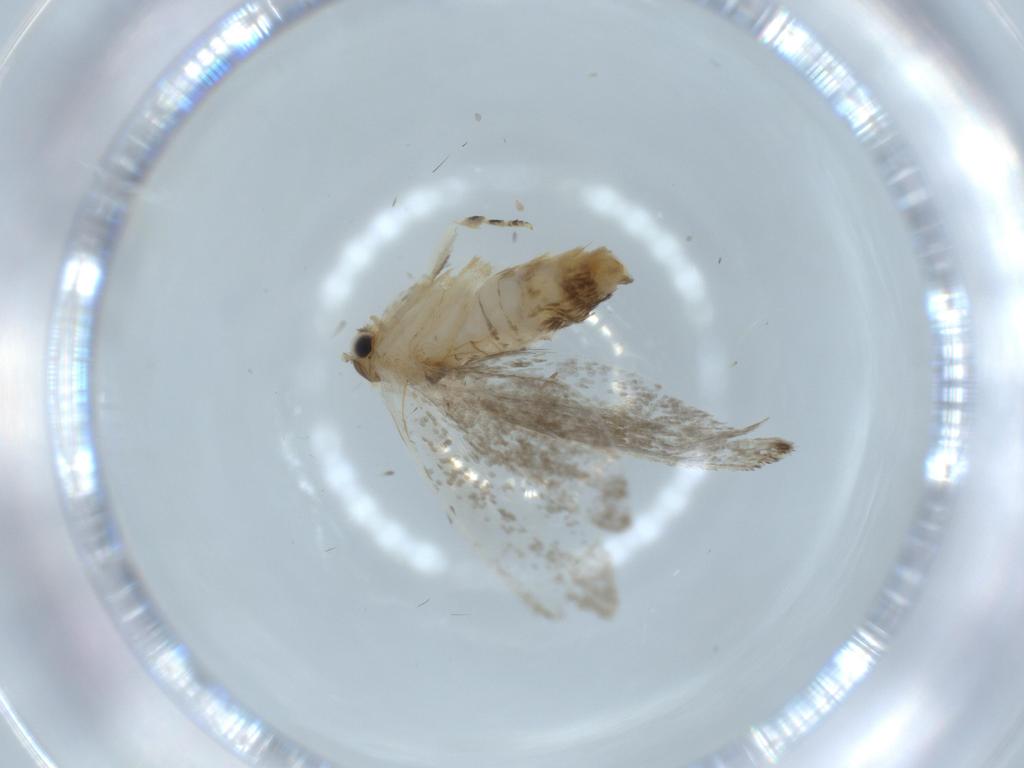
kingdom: Animalia
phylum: Arthropoda
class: Insecta
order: Lepidoptera
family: Tineidae
